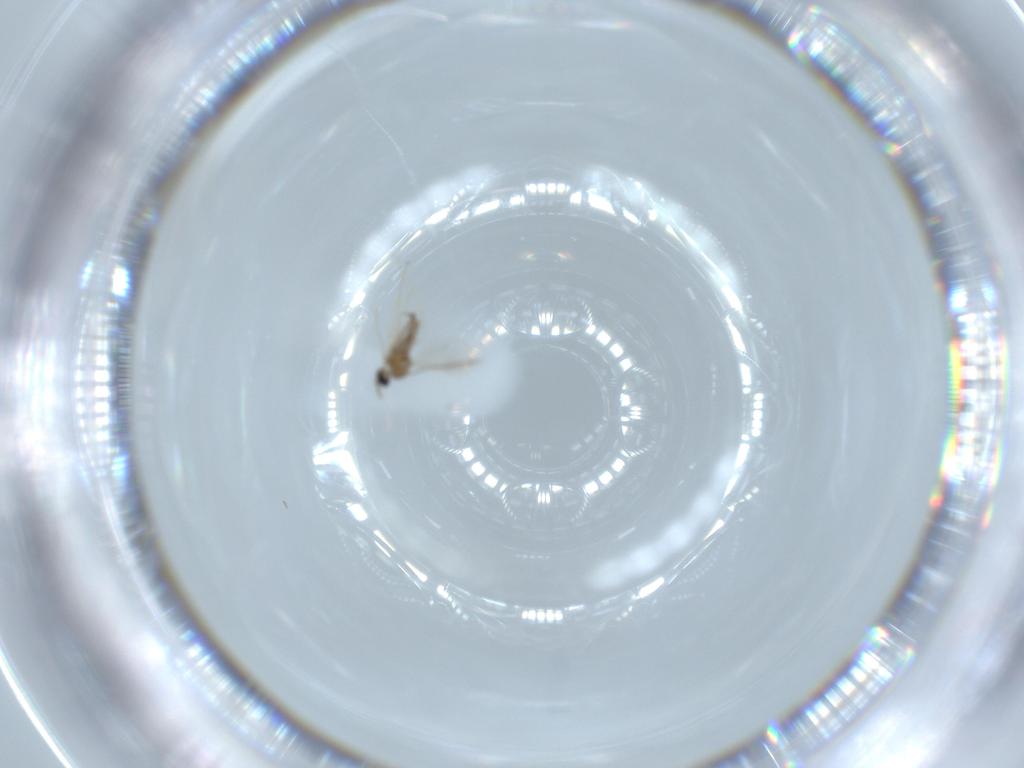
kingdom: Animalia
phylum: Arthropoda
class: Insecta
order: Diptera
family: Cecidomyiidae
